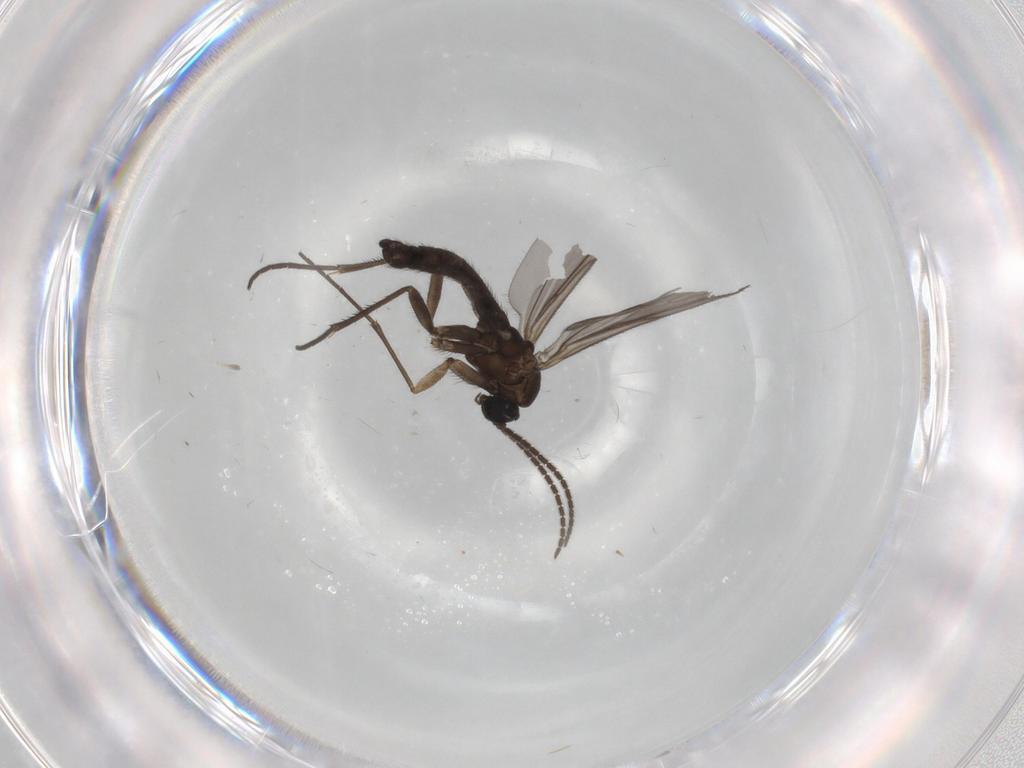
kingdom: Animalia
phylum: Arthropoda
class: Insecta
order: Diptera
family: Sciaridae
